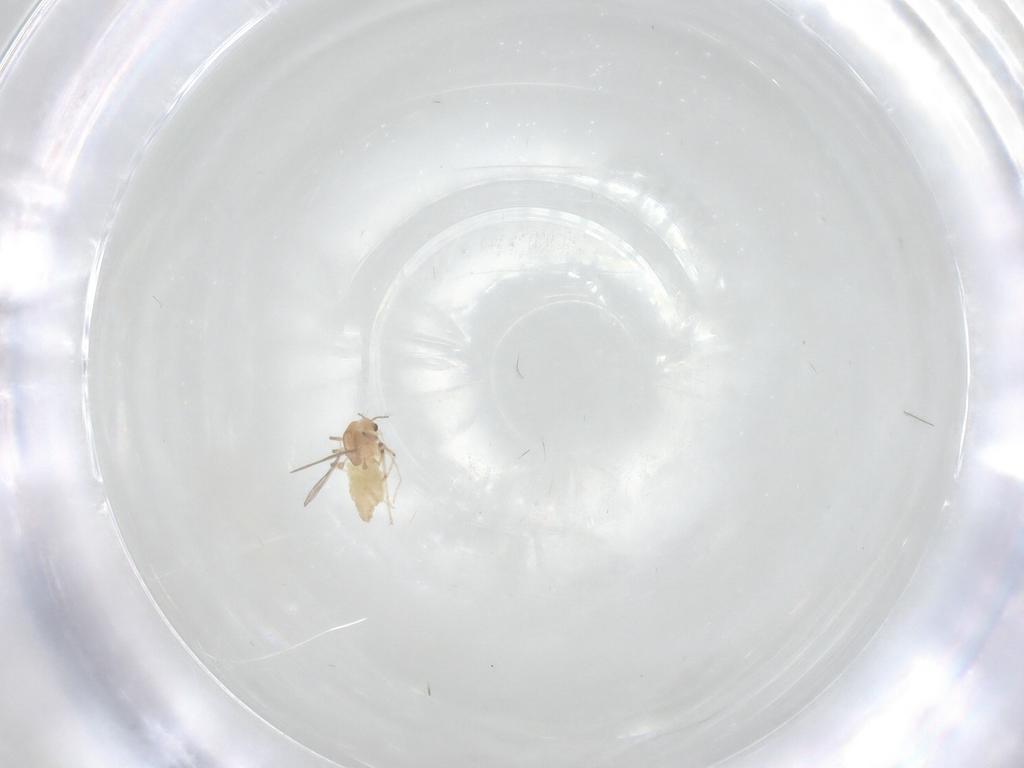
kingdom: Animalia
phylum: Arthropoda
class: Insecta
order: Diptera
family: Chironomidae
